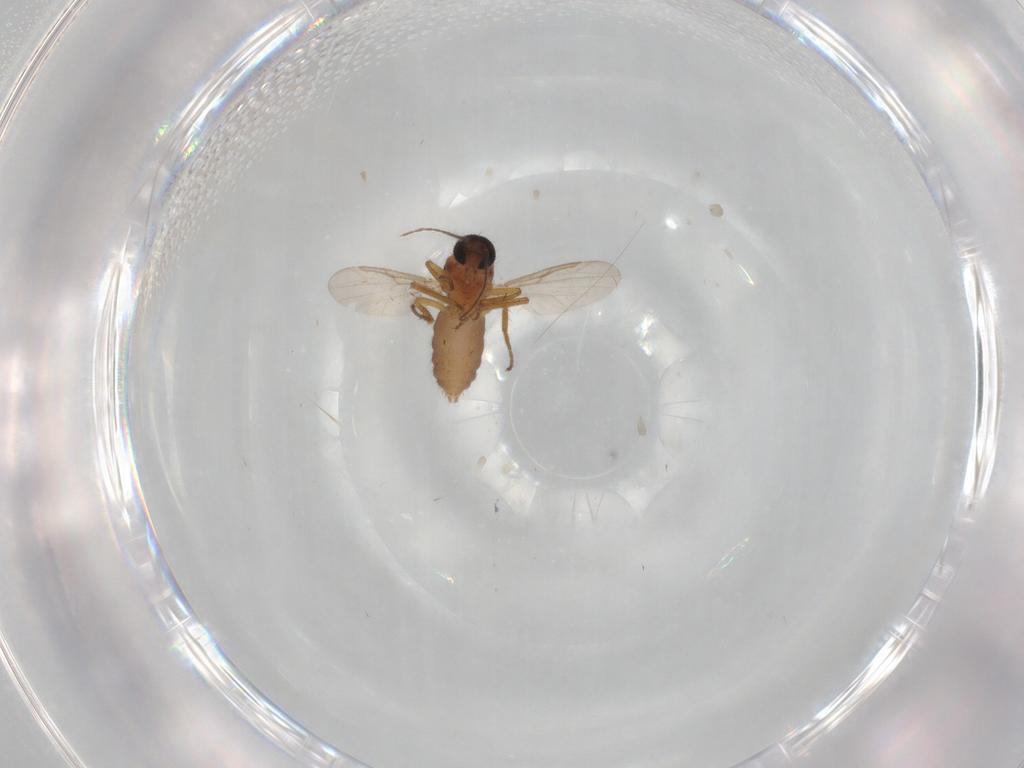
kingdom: Animalia
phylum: Arthropoda
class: Insecta
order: Diptera
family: Ceratopogonidae
